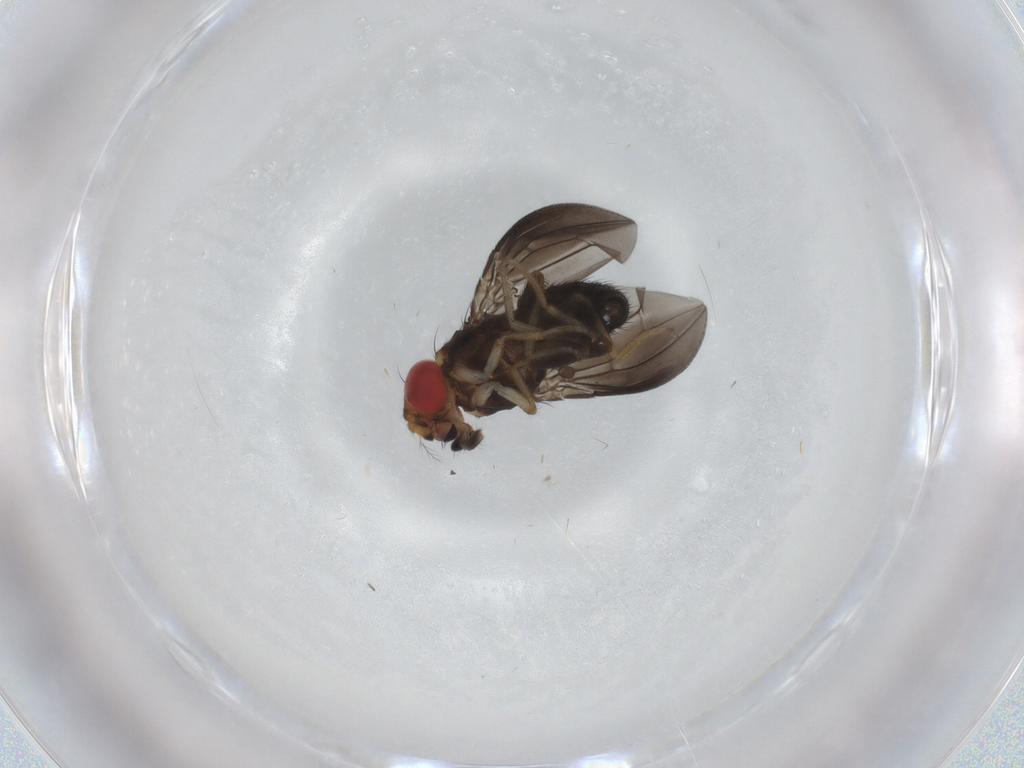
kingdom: Animalia
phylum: Arthropoda
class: Insecta
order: Diptera
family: Drosophilidae
